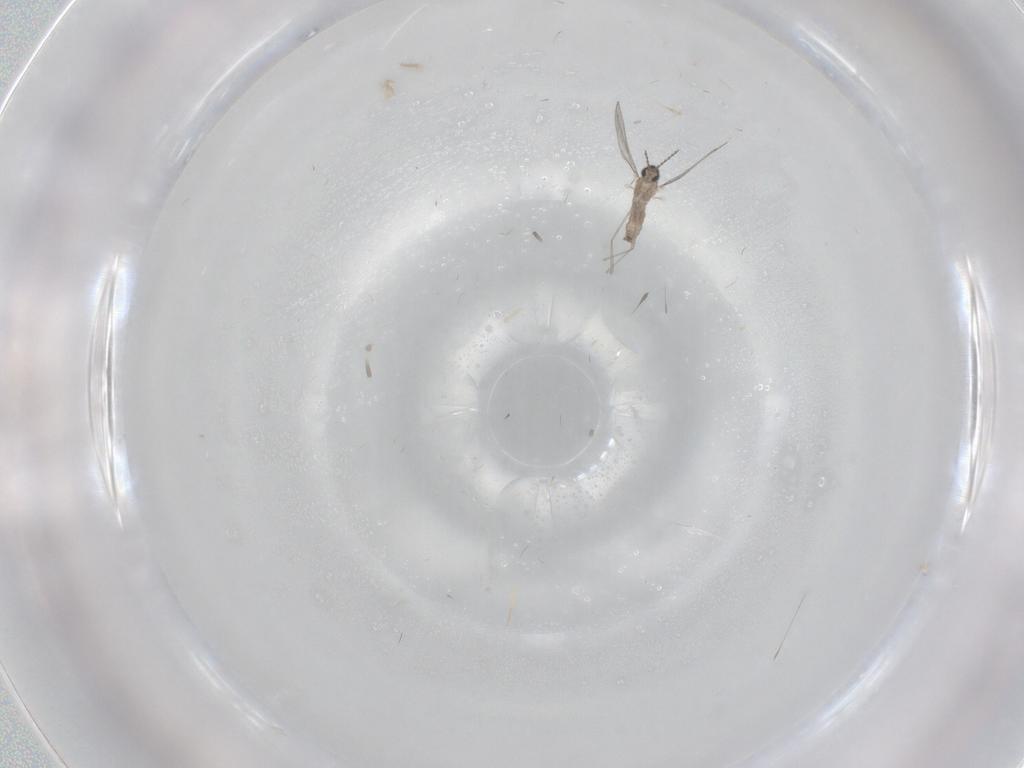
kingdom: Animalia
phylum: Arthropoda
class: Insecta
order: Diptera
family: Cecidomyiidae
